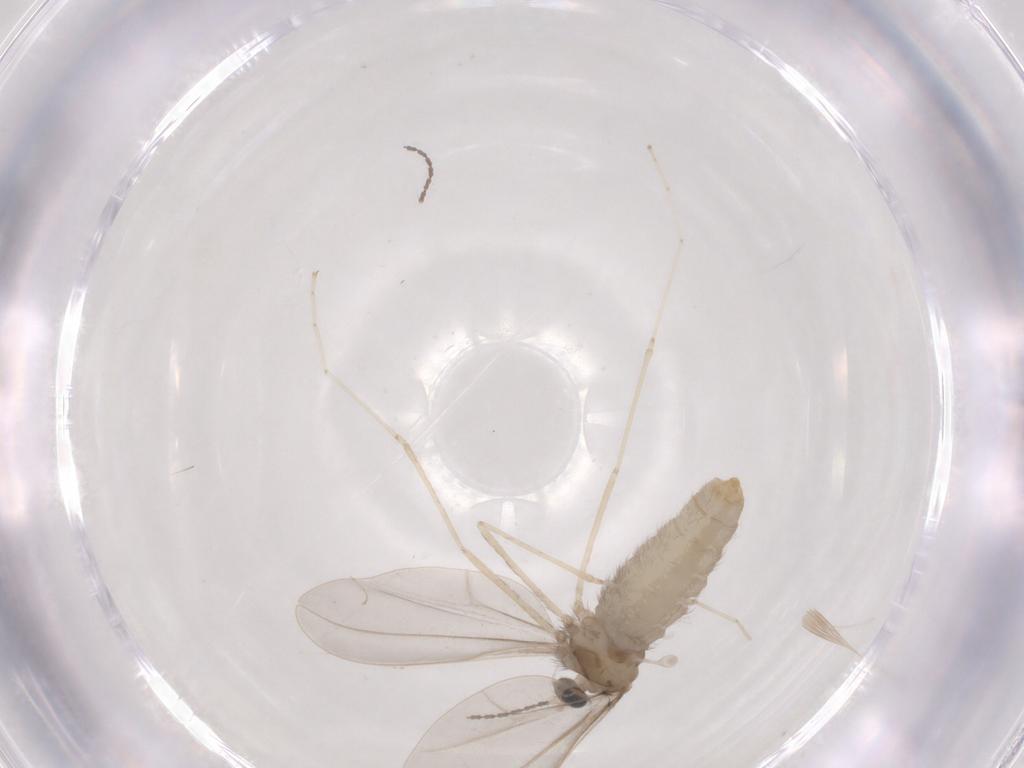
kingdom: Animalia
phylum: Arthropoda
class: Insecta
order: Diptera
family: Cecidomyiidae
